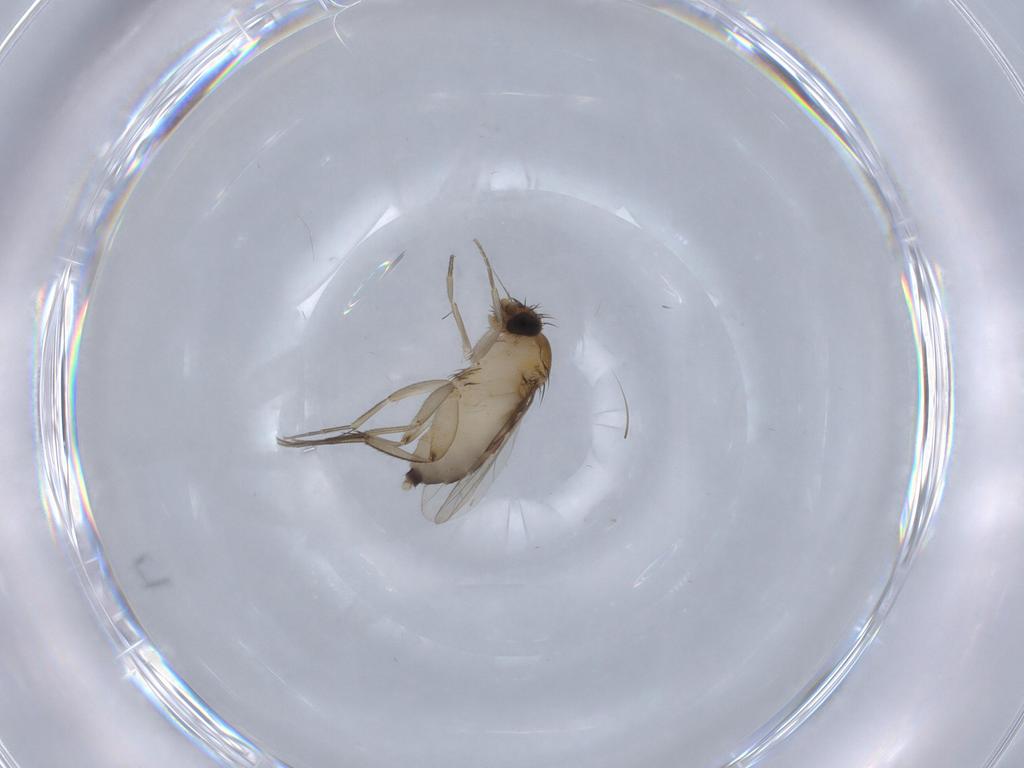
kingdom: Animalia
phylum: Arthropoda
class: Insecta
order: Diptera
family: Phoridae
